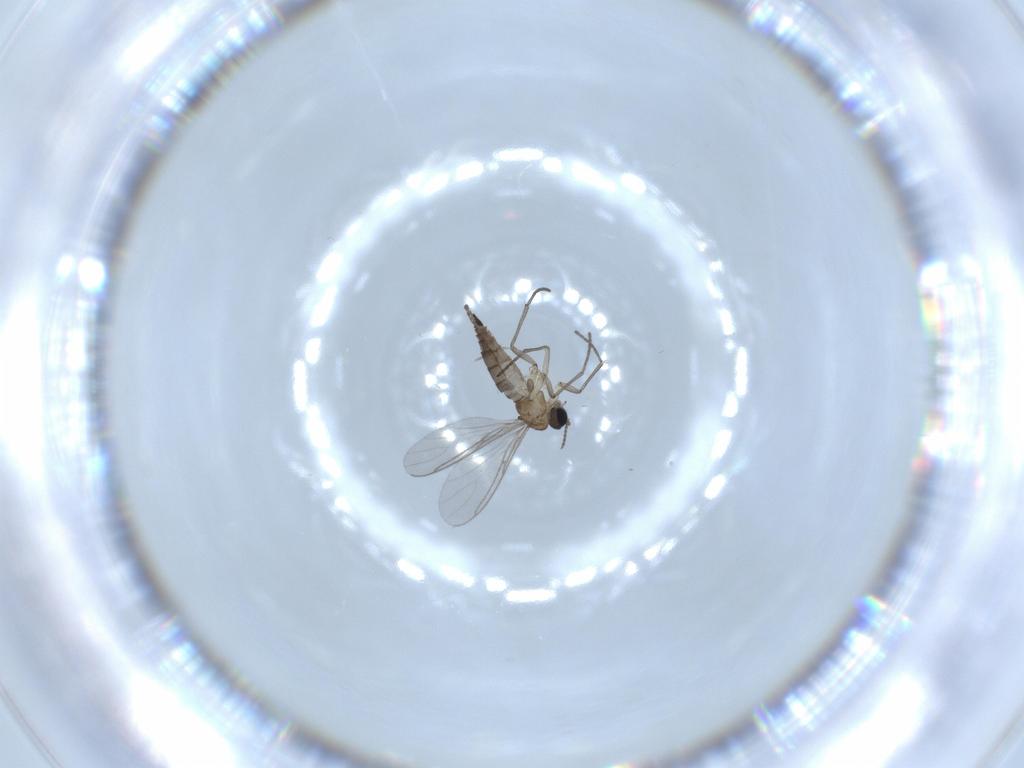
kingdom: Animalia
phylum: Arthropoda
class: Insecta
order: Diptera
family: Sciaridae
